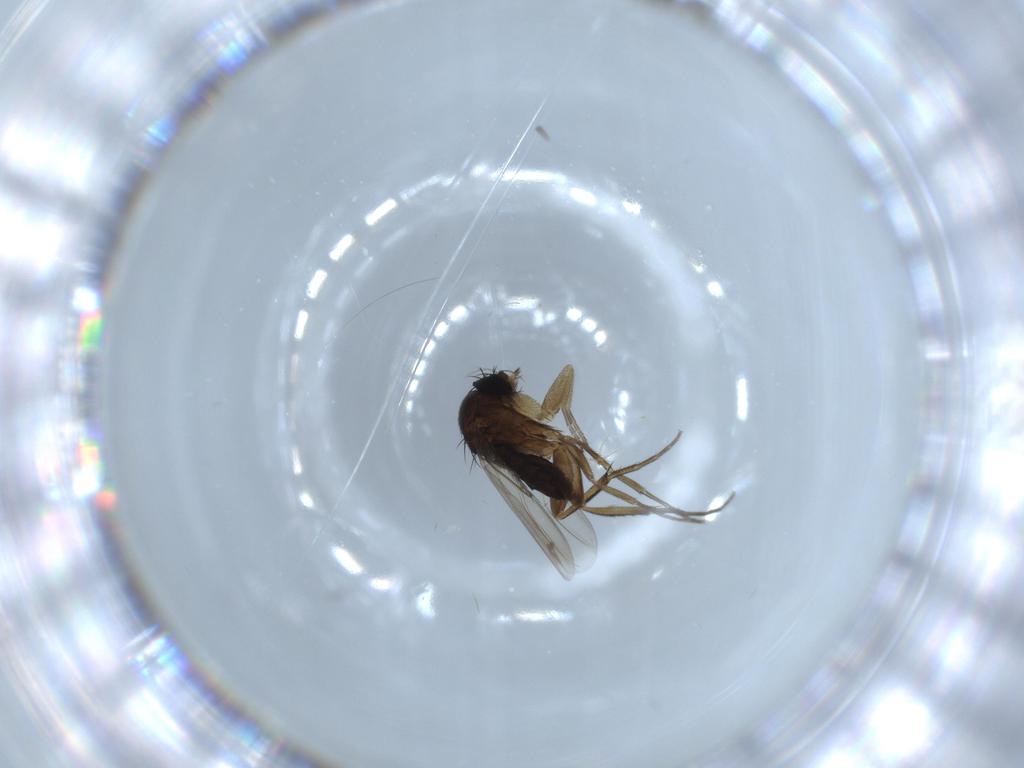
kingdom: Animalia
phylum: Arthropoda
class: Insecta
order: Diptera
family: Phoridae
